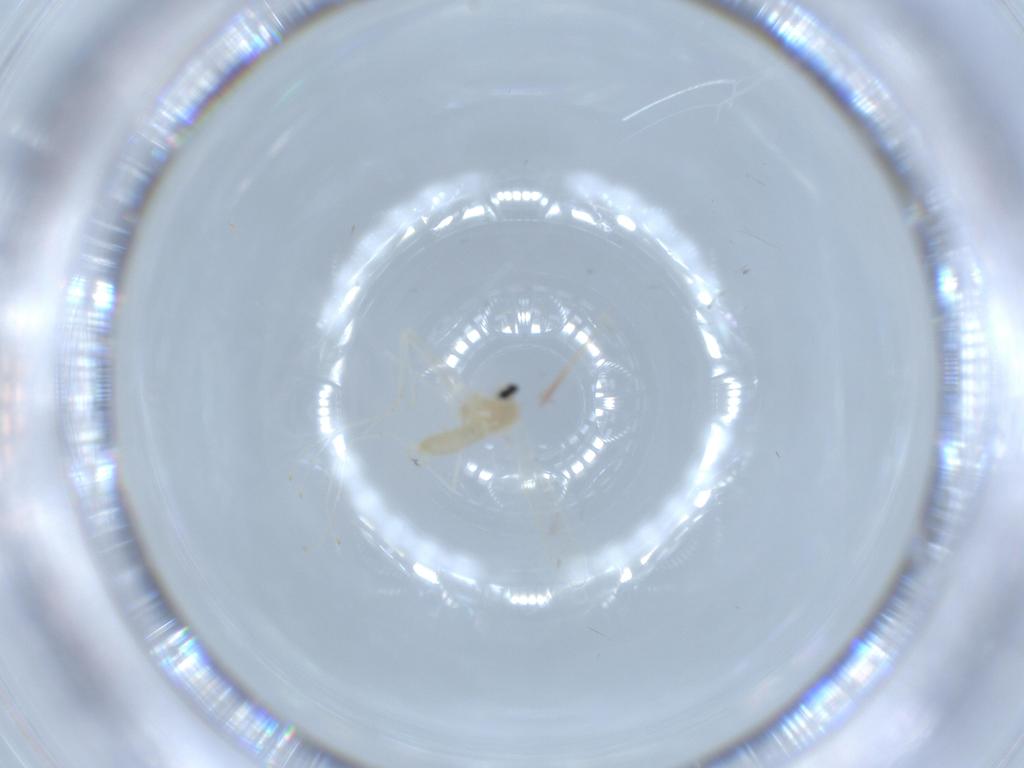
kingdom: Animalia
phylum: Arthropoda
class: Insecta
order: Diptera
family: Cecidomyiidae
